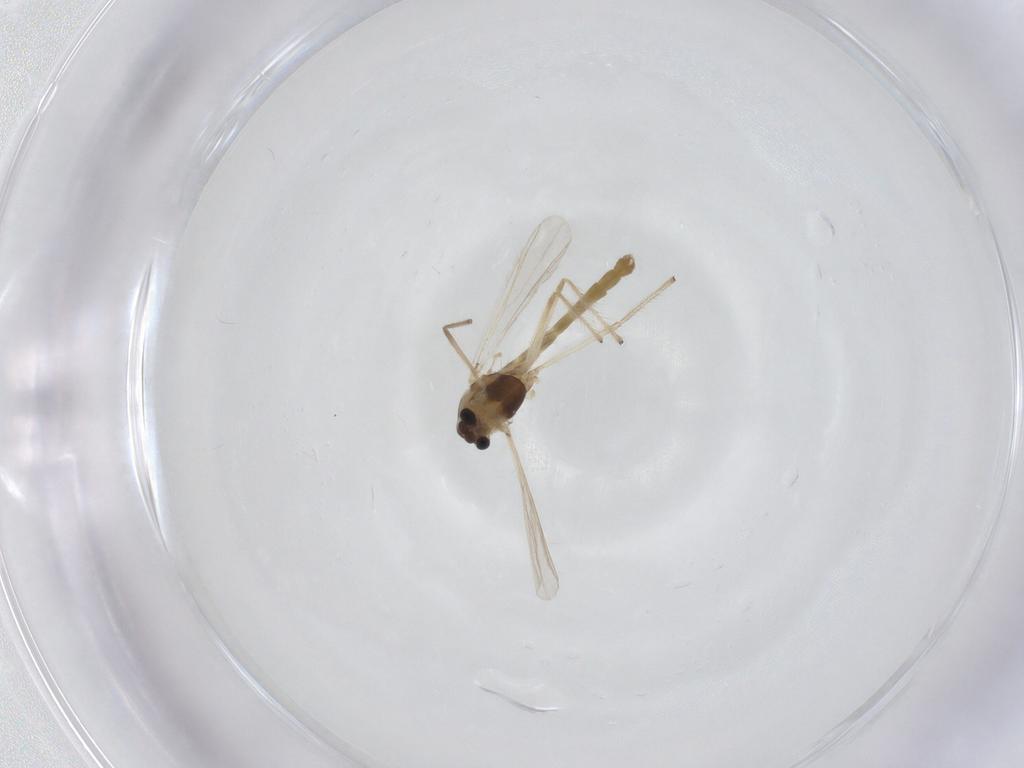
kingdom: Animalia
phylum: Arthropoda
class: Insecta
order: Diptera
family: Chironomidae
